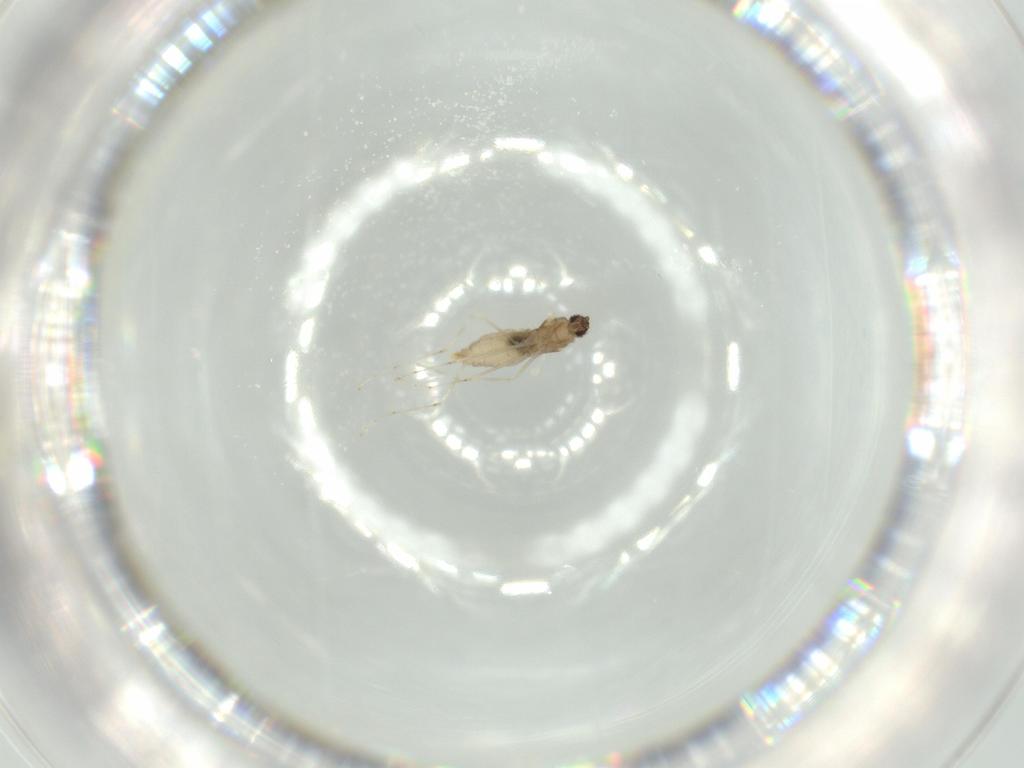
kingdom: Animalia
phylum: Arthropoda
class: Insecta
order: Diptera
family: Cecidomyiidae
